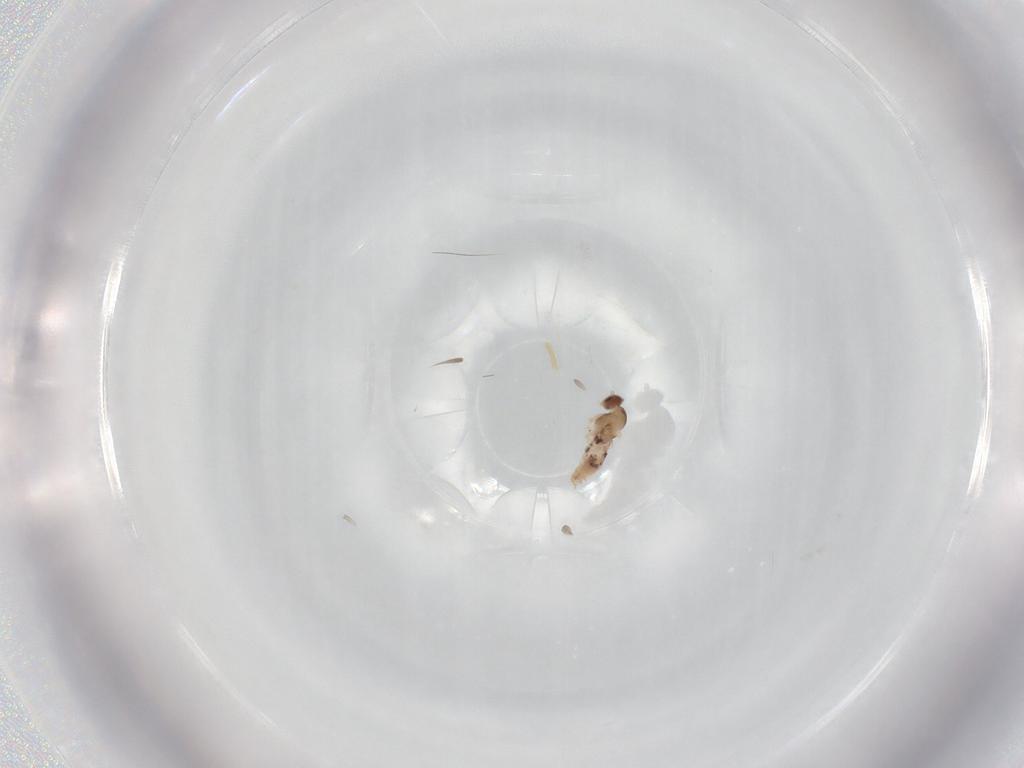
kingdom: Animalia
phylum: Arthropoda
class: Insecta
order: Diptera
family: Cecidomyiidae
